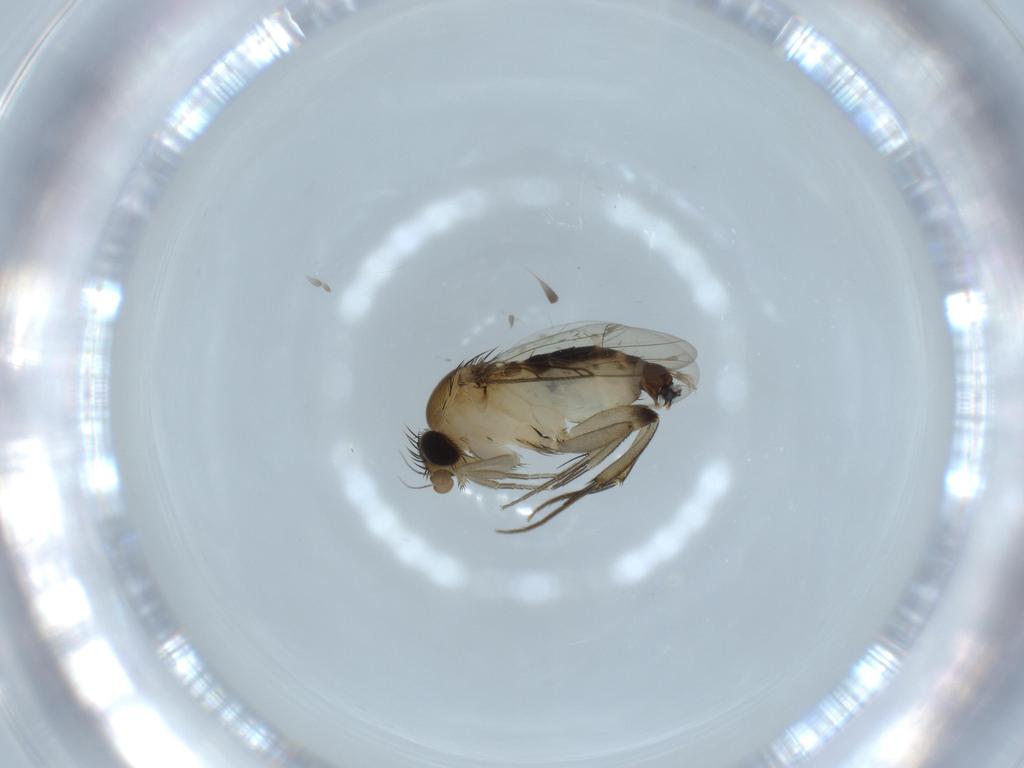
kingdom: Animalia
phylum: Arthropoda
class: Insecta
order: Diptera
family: Phoridae
